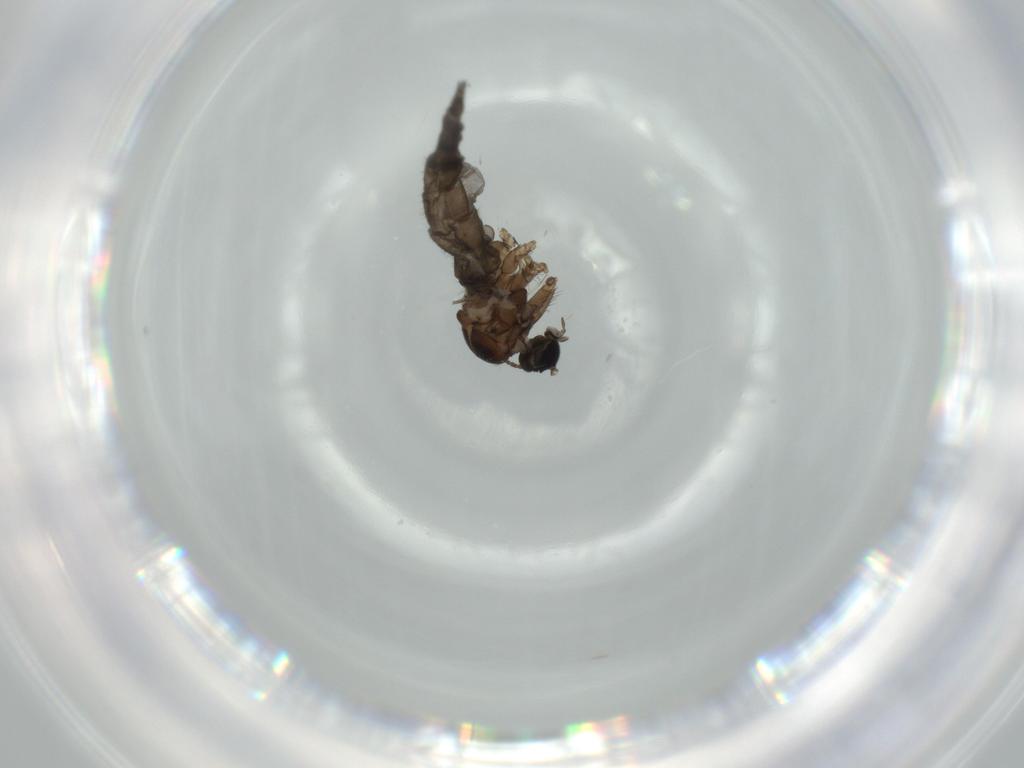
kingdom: Animalia
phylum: Arthropoda
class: Insecta
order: Diptera
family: Sciaridae
